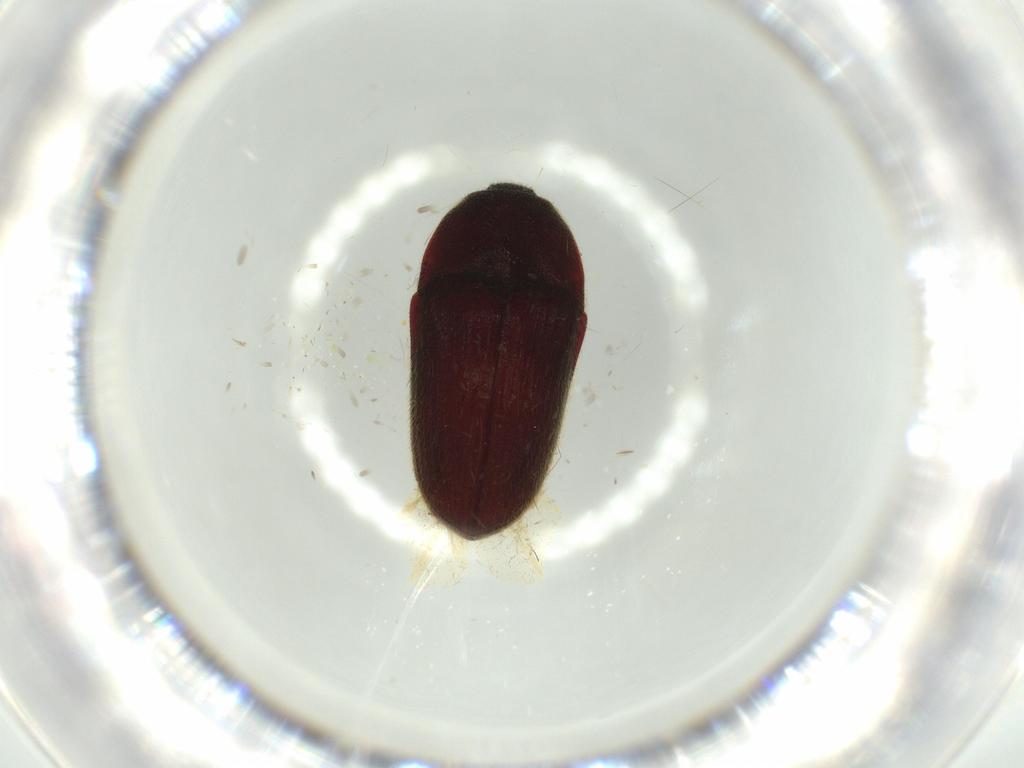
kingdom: Animalia
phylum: Arthropoda
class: Insecta
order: Coleoptera
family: Throscidae
